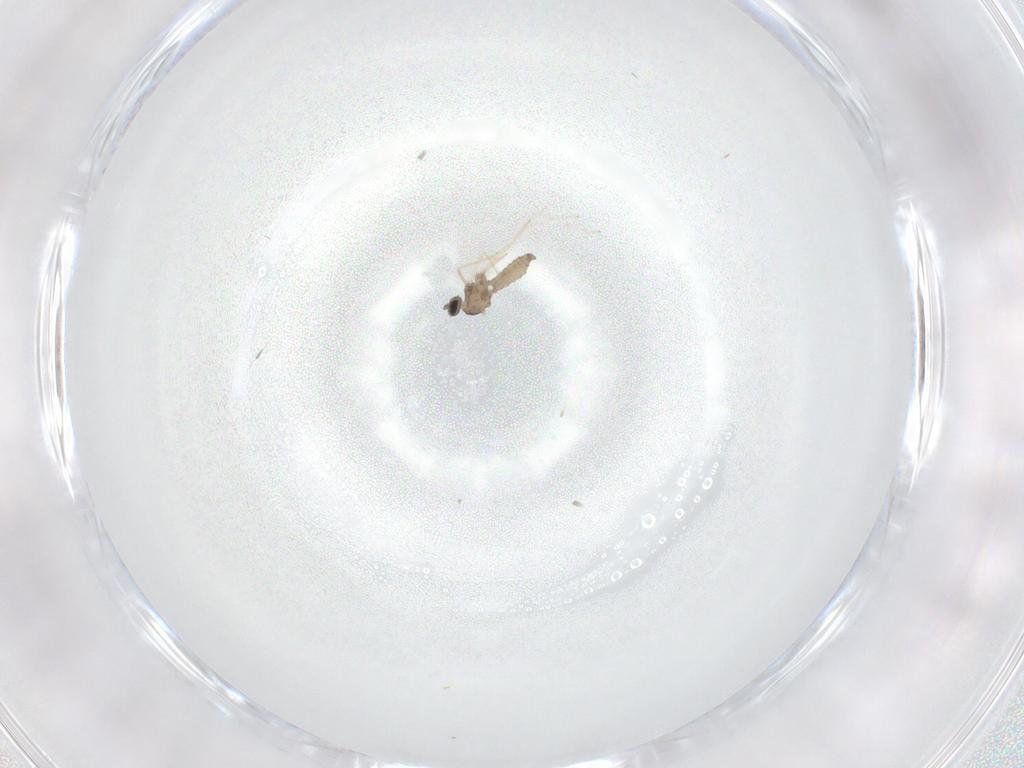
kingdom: Animalia
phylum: Arthropoda
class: Insecta
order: Diptera
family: Phoridae
